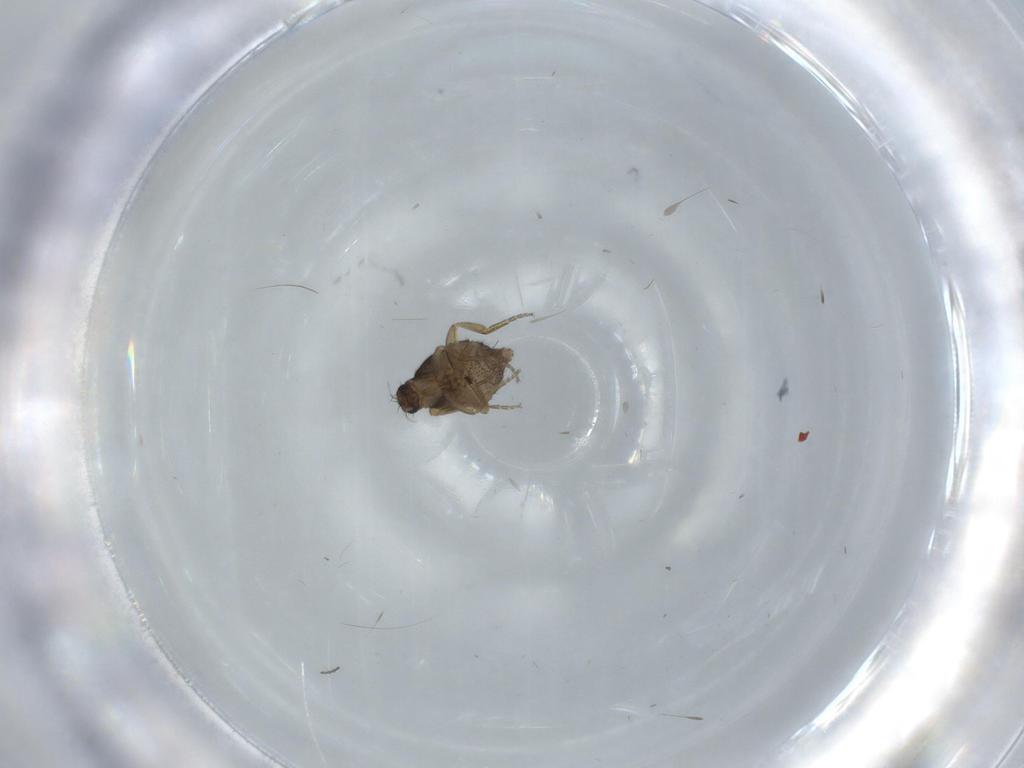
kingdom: Animalia
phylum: Arthropoda
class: Insecta
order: Diptera
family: Phoridae
